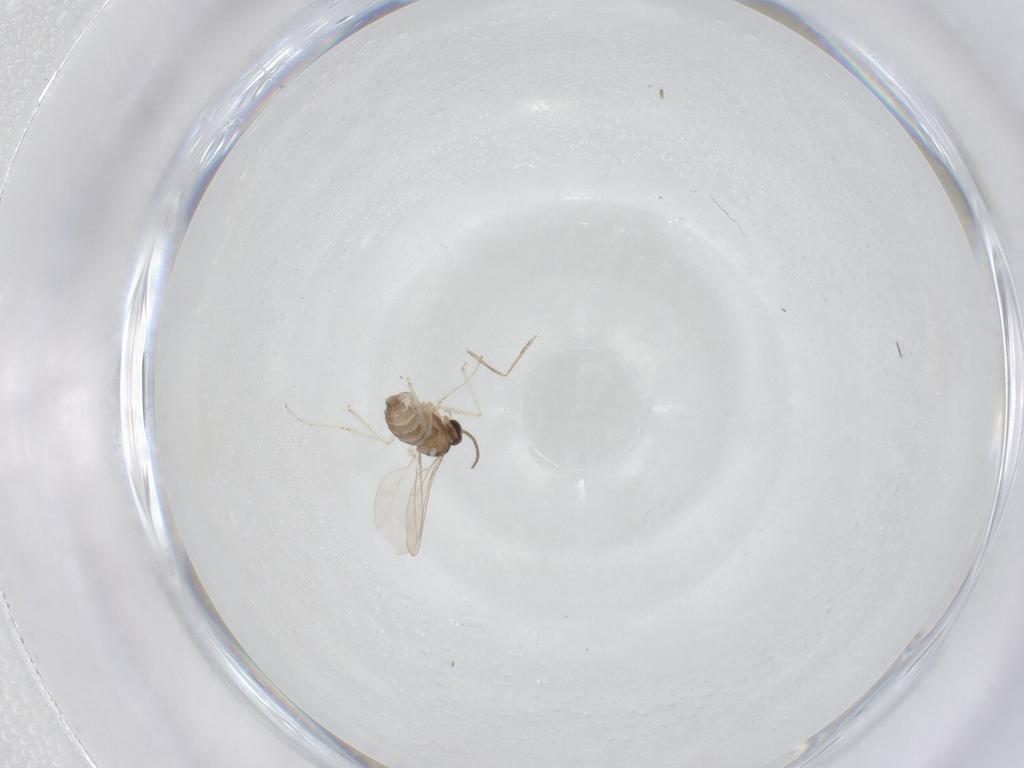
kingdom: Animalia
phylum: Arthropoda
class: Insecta
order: Diptera
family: Cecidomyiidae
